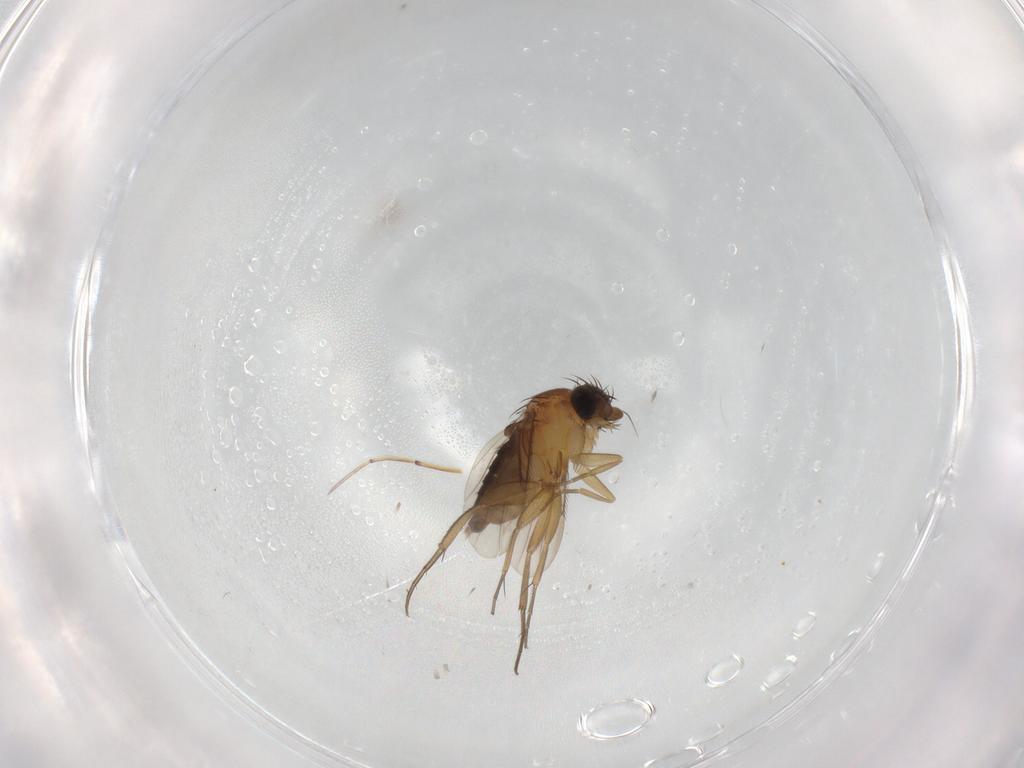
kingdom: Animalia
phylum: Arthropoda
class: Insecta
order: Diptera
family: Phoridae
